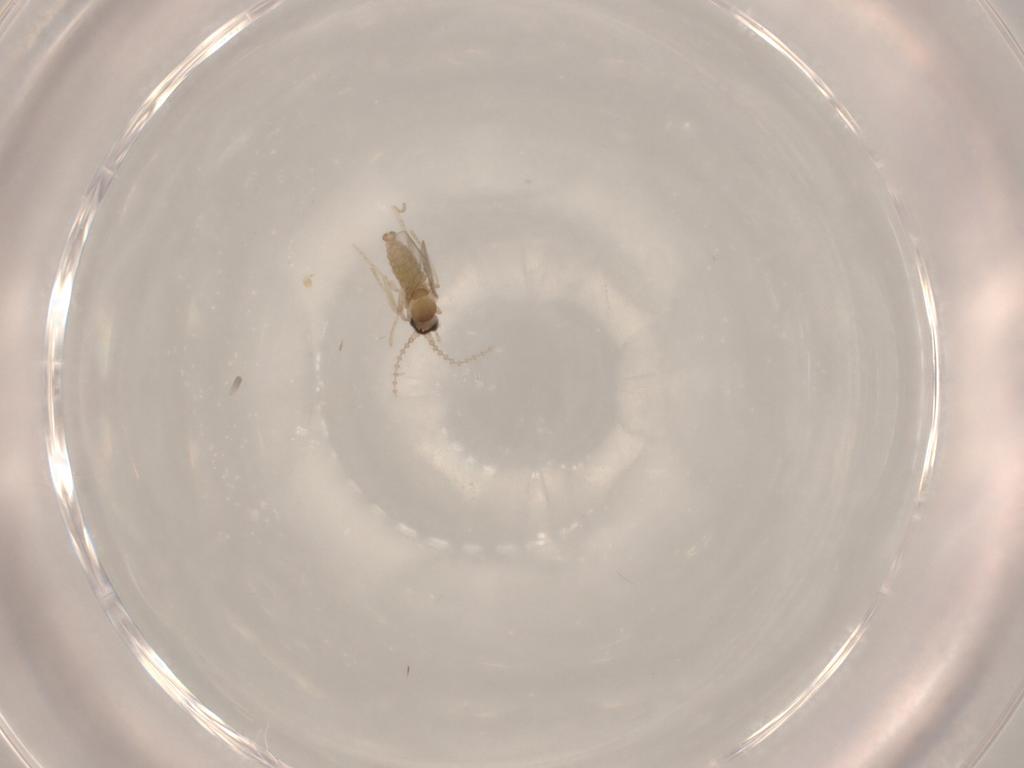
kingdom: Animalia
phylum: Arthropoda
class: Insecta
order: Diptera
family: Cecidomyiidae
